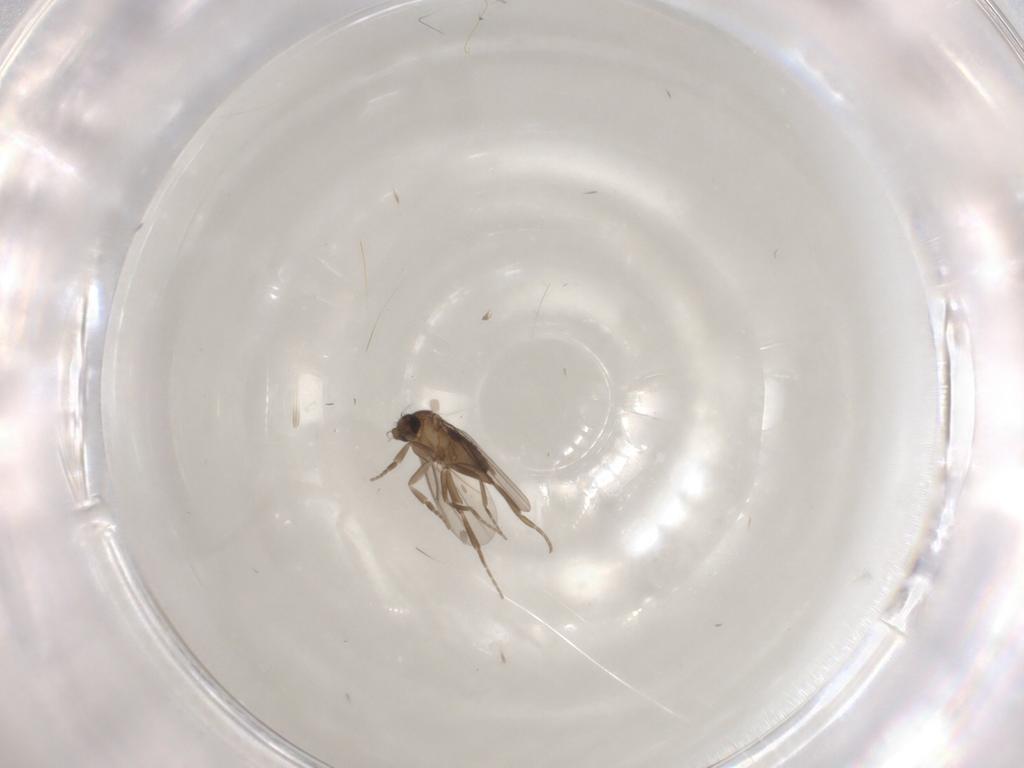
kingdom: Animalia
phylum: Arthropoda
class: Insecta
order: Diptera
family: Phoridae
